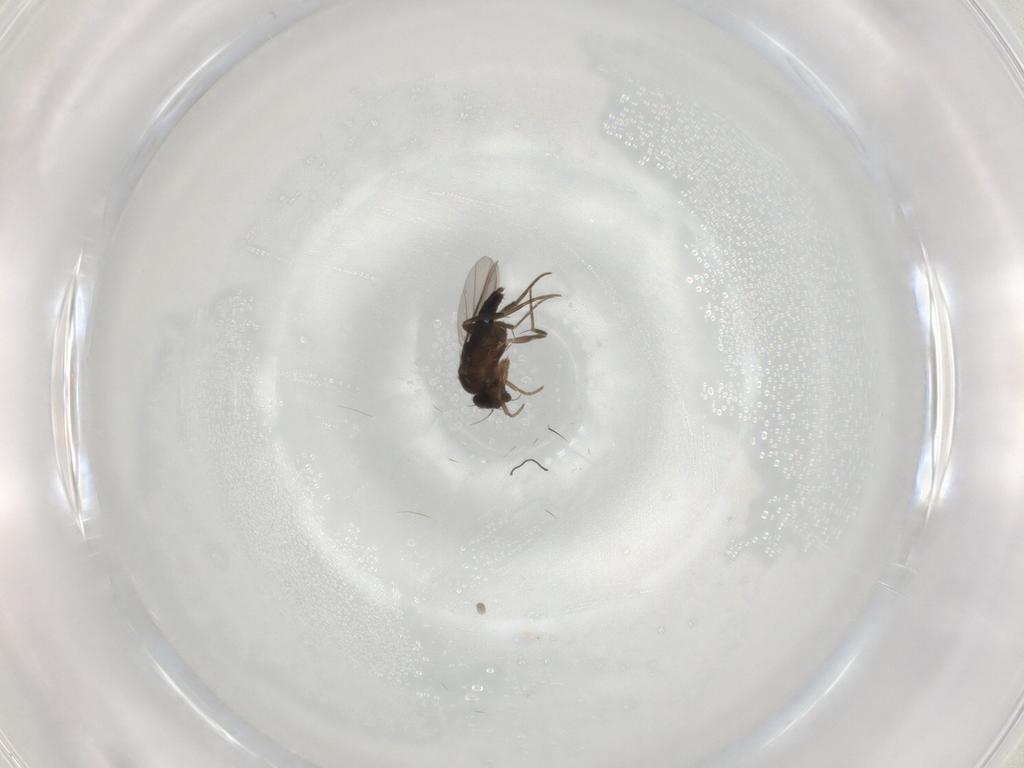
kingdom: Animalia
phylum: Arthropoda
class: Insecta
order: Diptera
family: Phoridae
